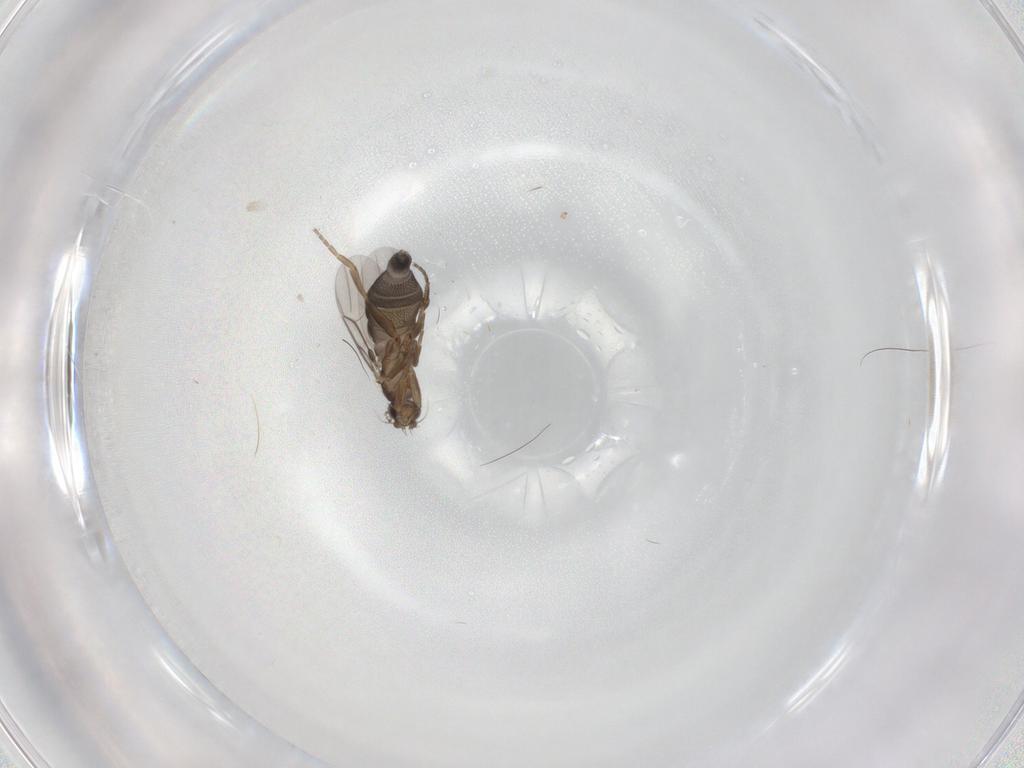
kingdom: Animalia
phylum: Arthropoda
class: Insecta
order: Diptera
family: Phoridae
